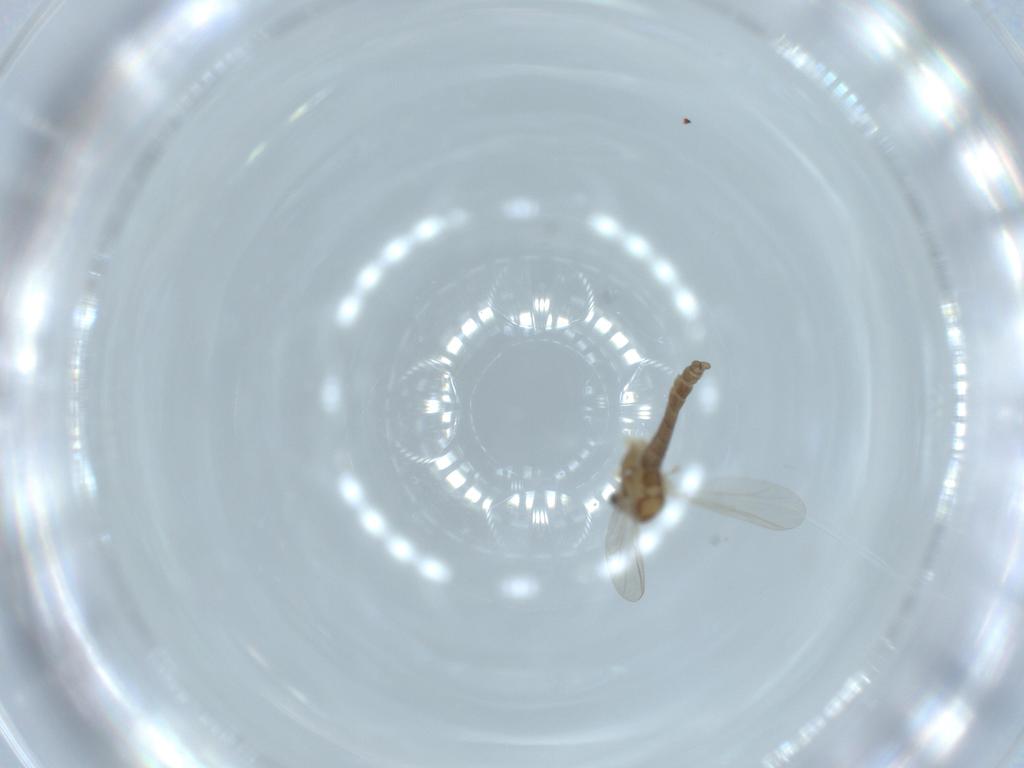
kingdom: Animalia
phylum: Arthropoda
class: Insecta
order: Diptera
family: Cecidomyiidae
